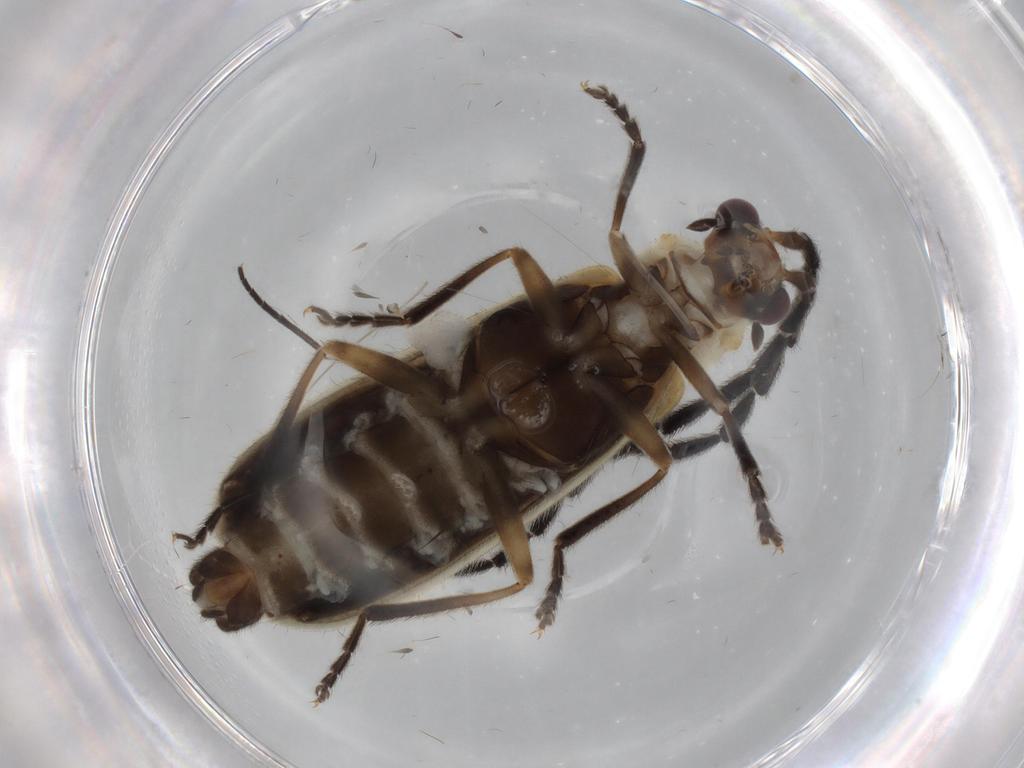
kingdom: Animalia
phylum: Arthropoda
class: Insecta
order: Coleoptera
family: Cantharidae
